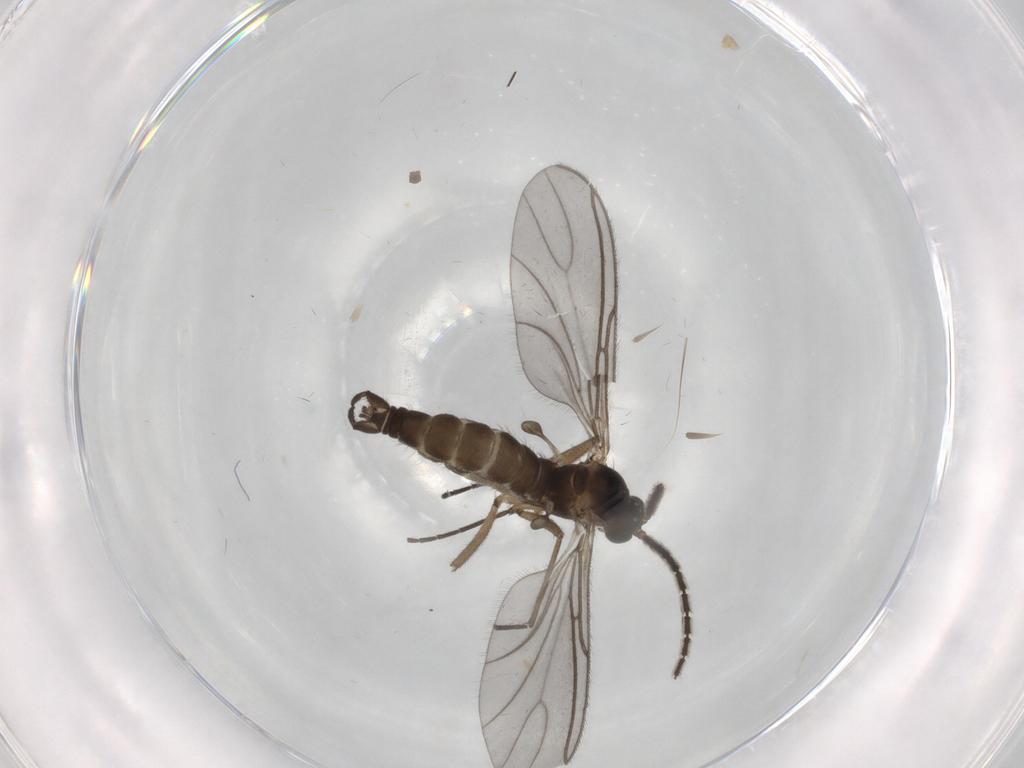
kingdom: Animalia
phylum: Arthropoda
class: Insecta
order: Diptera
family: Sciaridae
